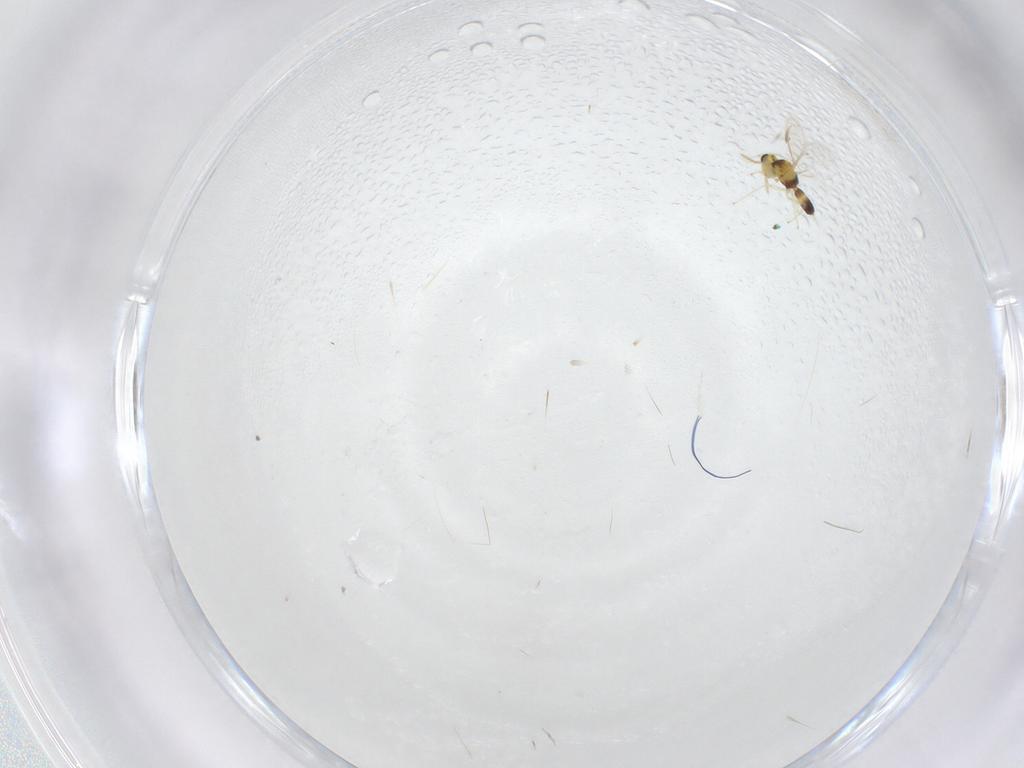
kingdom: Animalia
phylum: Arthropoda
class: Insecta
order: Hymenoptera
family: Eulophidae
